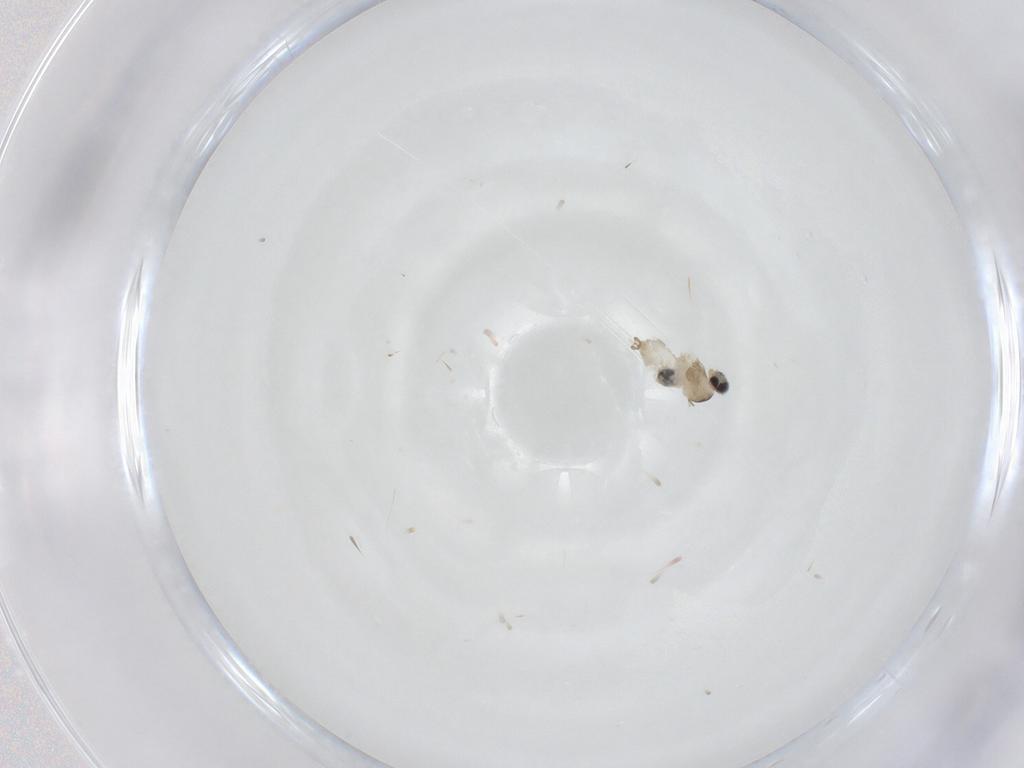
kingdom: Animalia
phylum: Arthropoda
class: Insecta
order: Diptera
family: Cecidomyiidae
